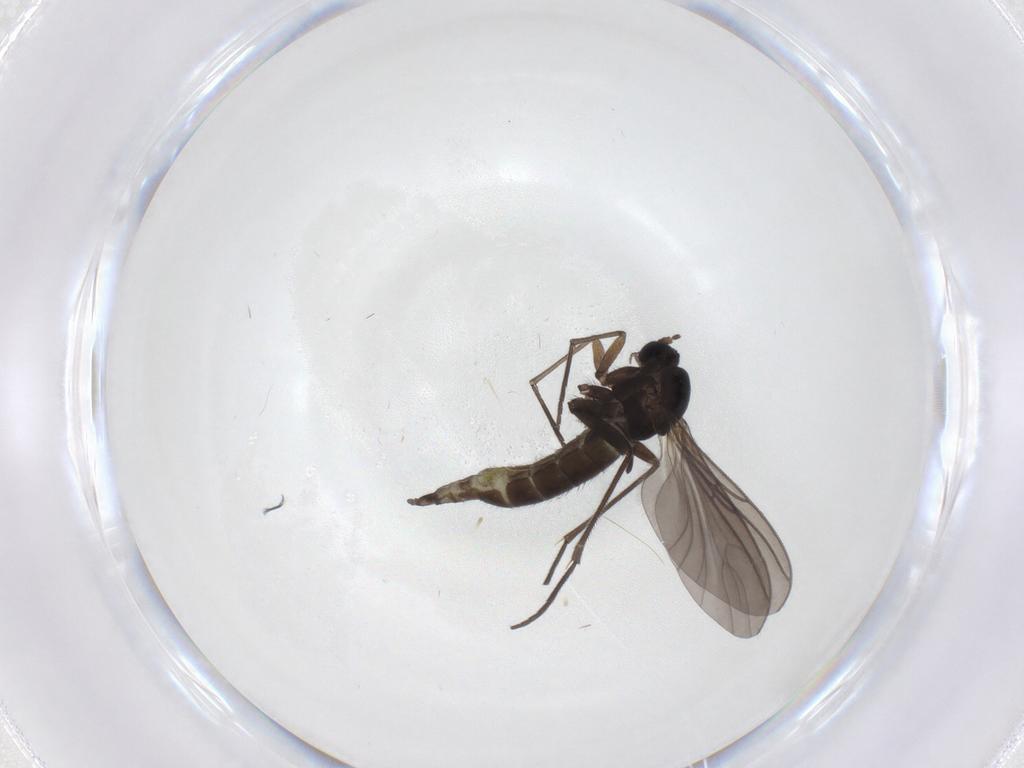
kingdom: Animalia
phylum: Arthropoda
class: Insecta
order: Diptera
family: Sciaridae
